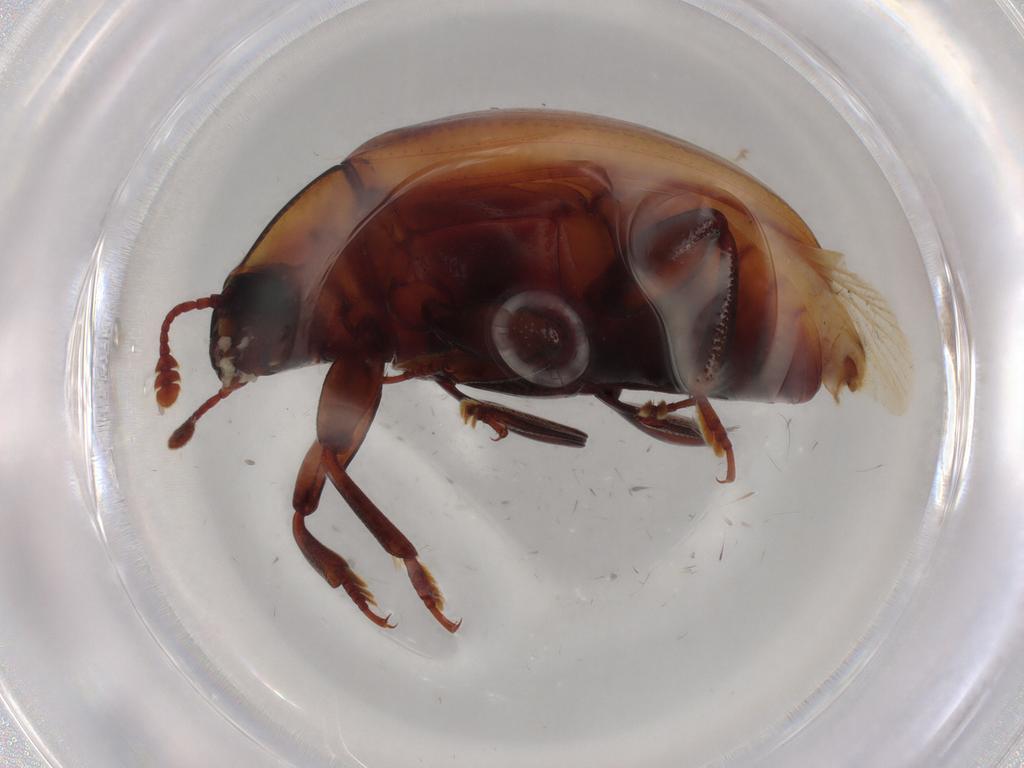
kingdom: Animalia
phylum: Arthropoda
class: Insecta
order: Coleoptera
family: Zopheridae
